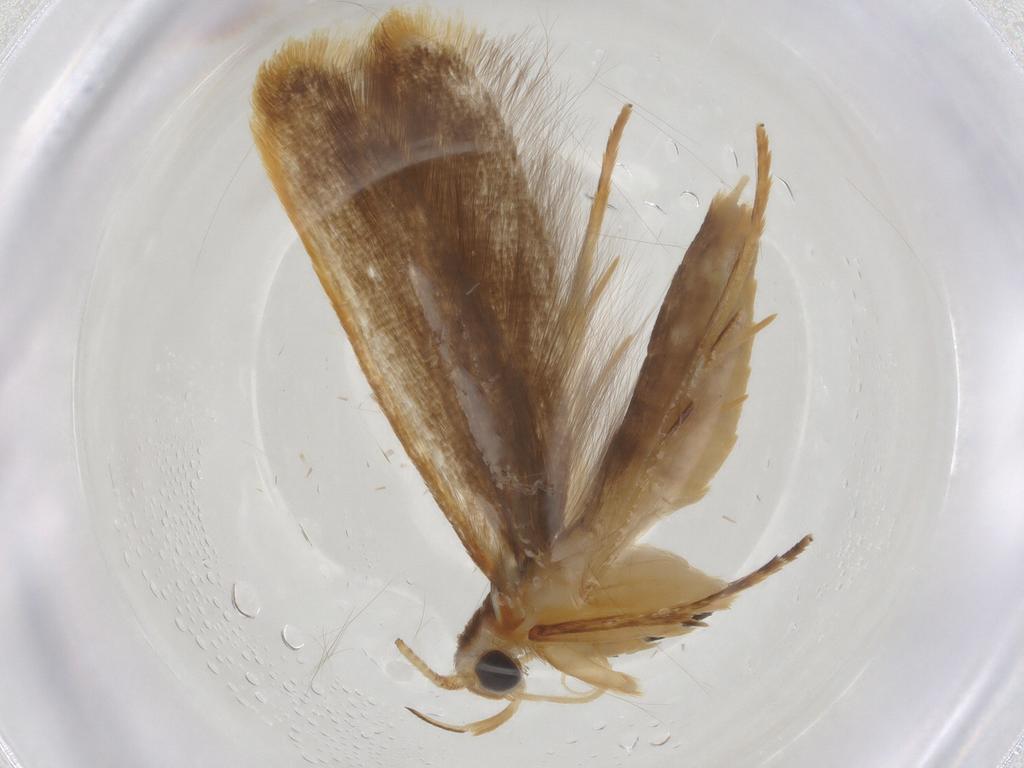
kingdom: Animalia
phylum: Arthropoda
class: Insecta
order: Lepidoptera
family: Elachistidae
